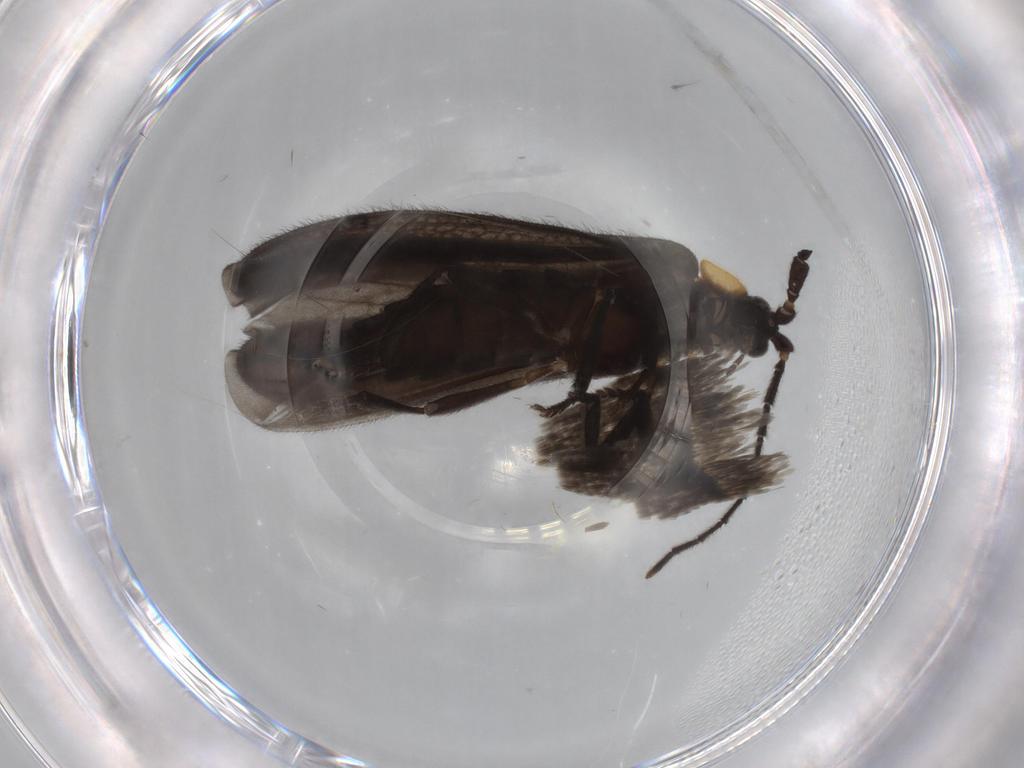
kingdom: Animalia
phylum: Arthropoda
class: Insecta
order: Coleoptera
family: Lycidae
